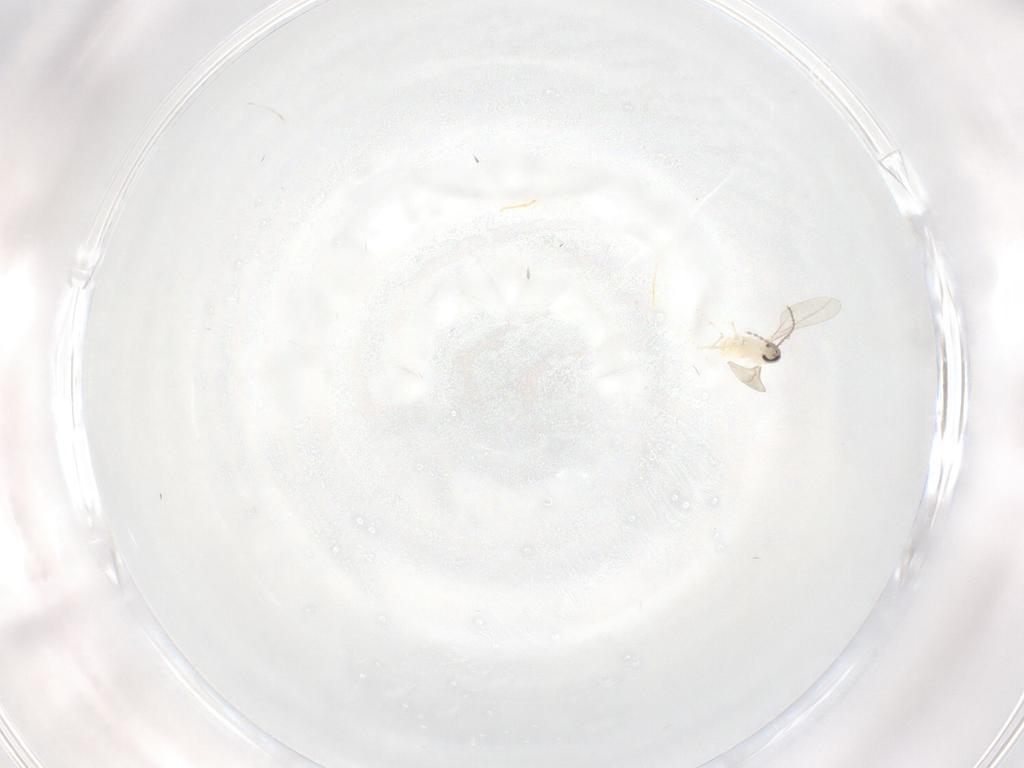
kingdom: Animalia
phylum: Arthropoda
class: Insecta
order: Diptera
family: Cecidomyiidae
